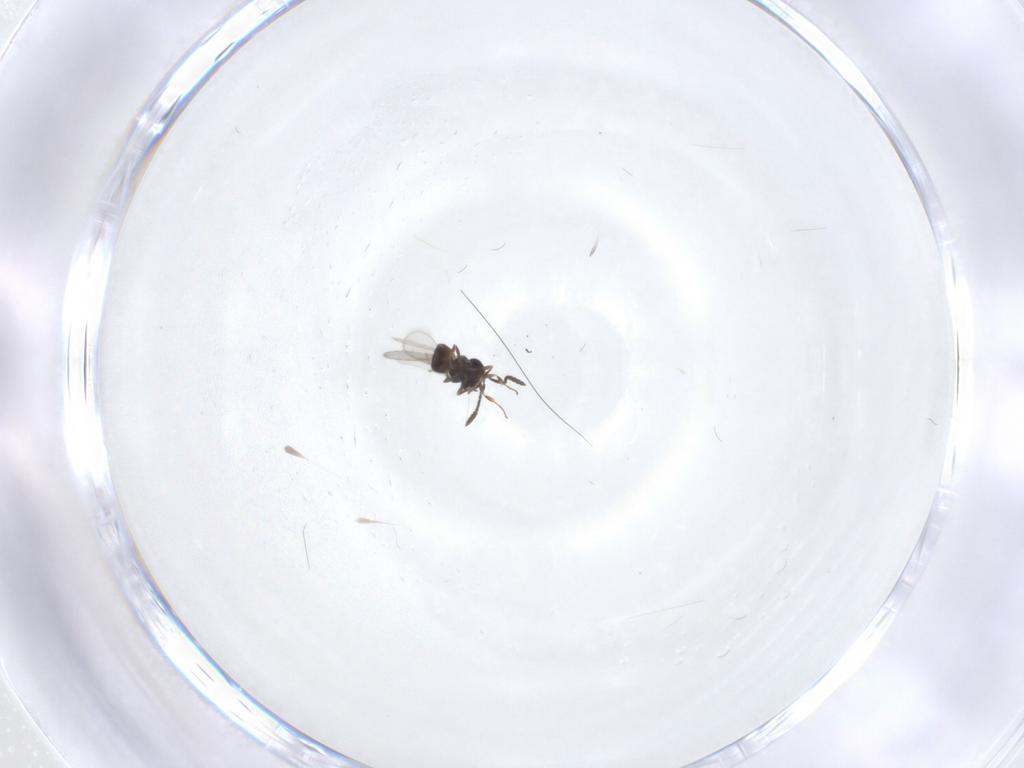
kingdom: Animalia
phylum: Arthropoda
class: Insecta
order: Hymenoptera
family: Scelionidae
